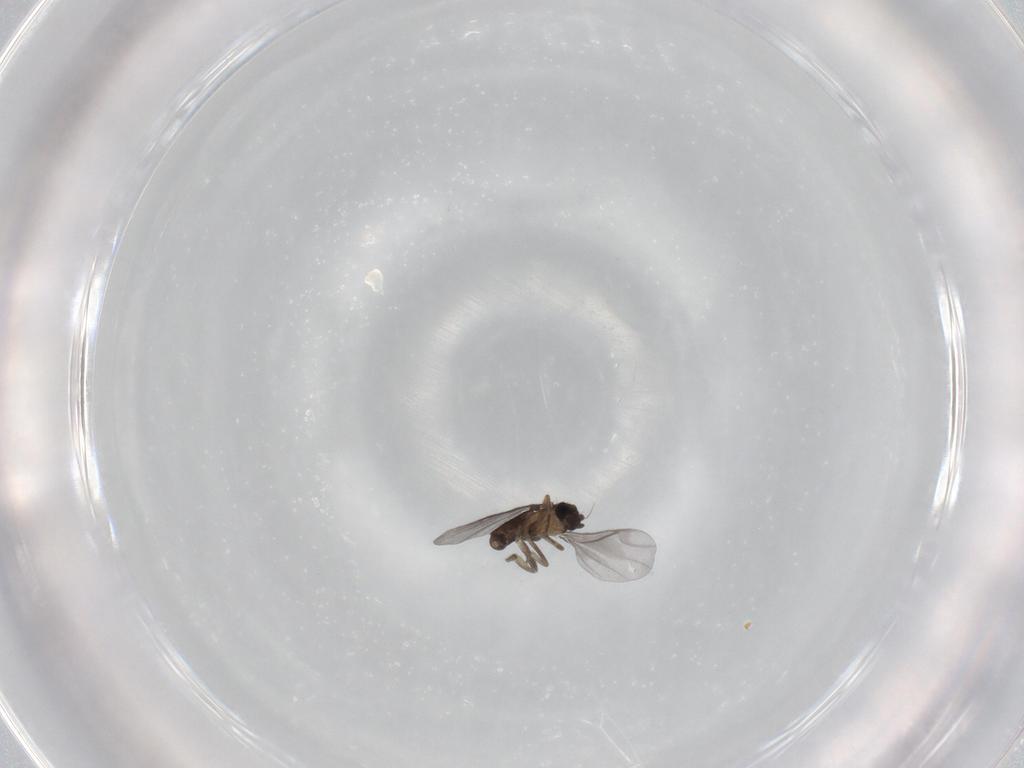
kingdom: Animalia
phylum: Arthropoda
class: Insecta
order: Diptera
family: Chironomidae
